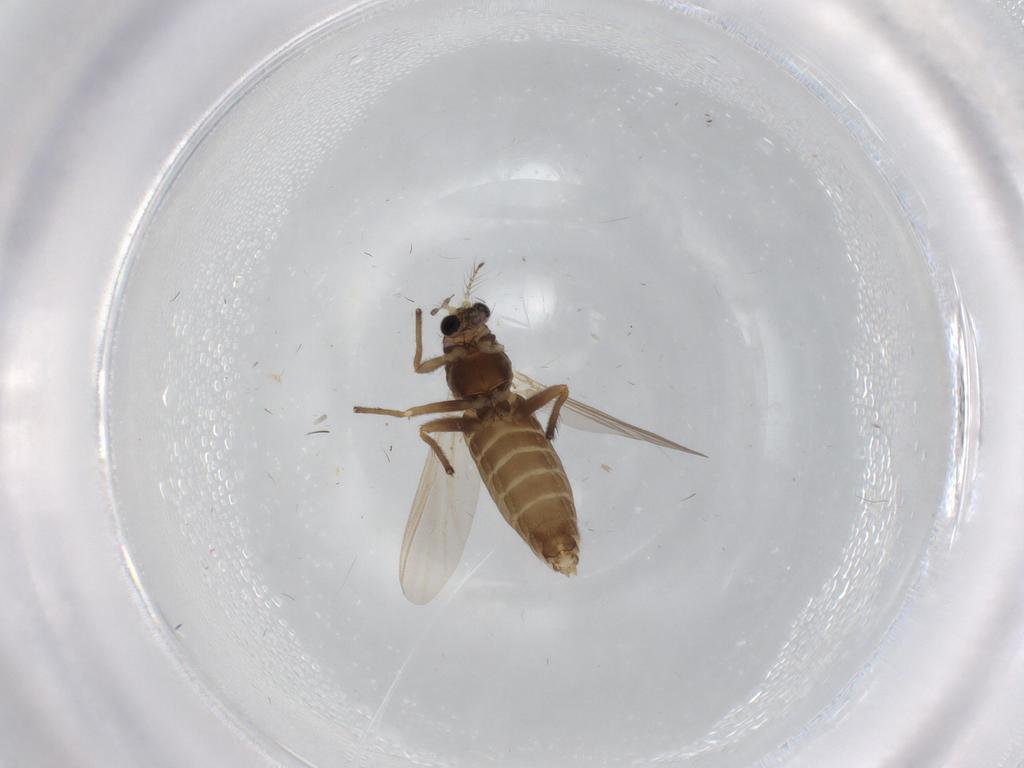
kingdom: Animalia
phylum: Arthropoda
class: Insecta
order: Diptera
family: Chironomidae
